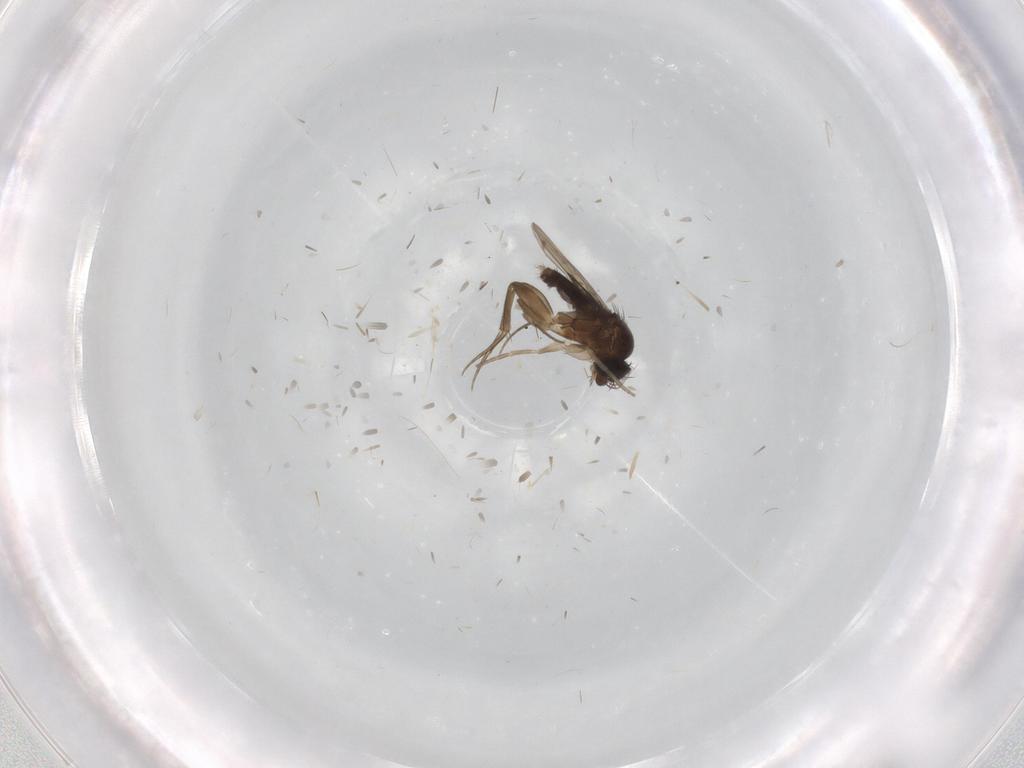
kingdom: Animalia
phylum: Arthropoda
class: Insecta
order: Diptera
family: Phoridae
